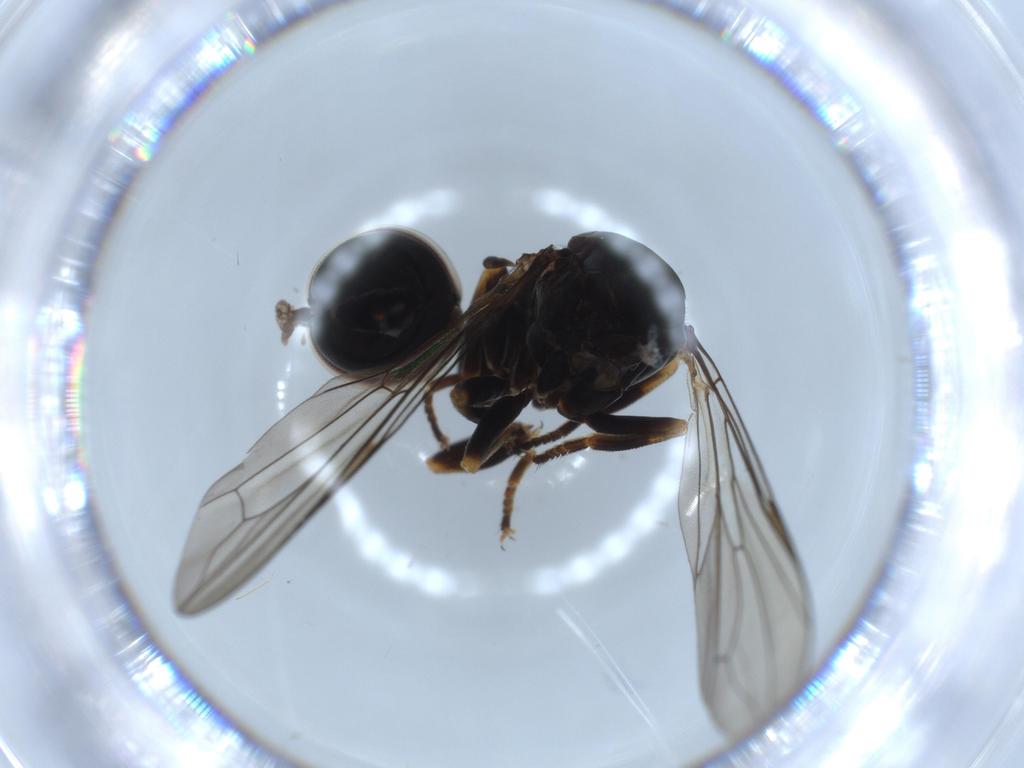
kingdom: Animalia
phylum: Arthropoda
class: Insecta
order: Diptera
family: Pipunculidae
